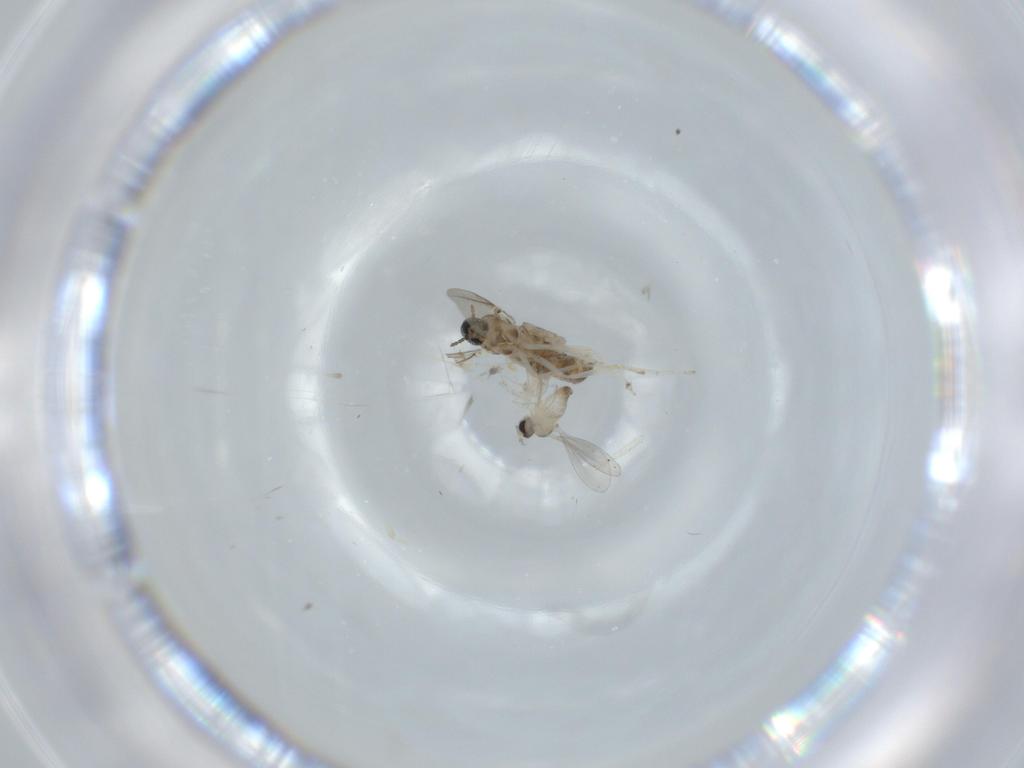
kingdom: Animalia
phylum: Arthropoda
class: Insecta
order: Diptera
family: Cecidomyiidae
